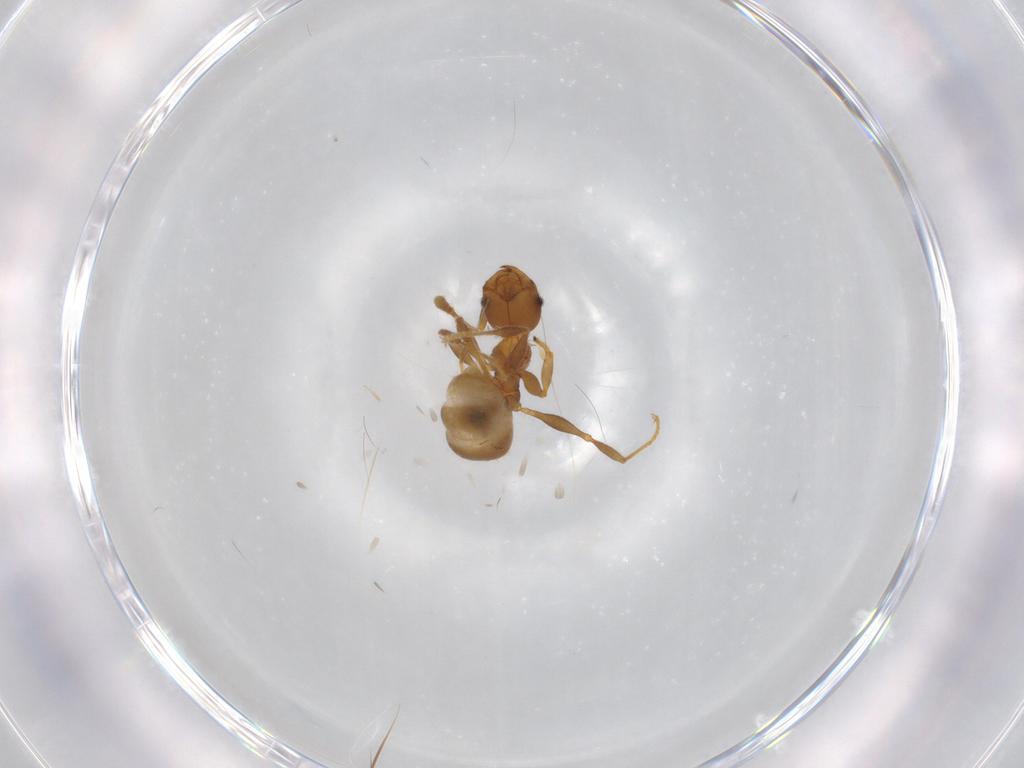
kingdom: Animalia
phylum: Arthropoda
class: Insecta
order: Hymenoptera
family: Formicidae
